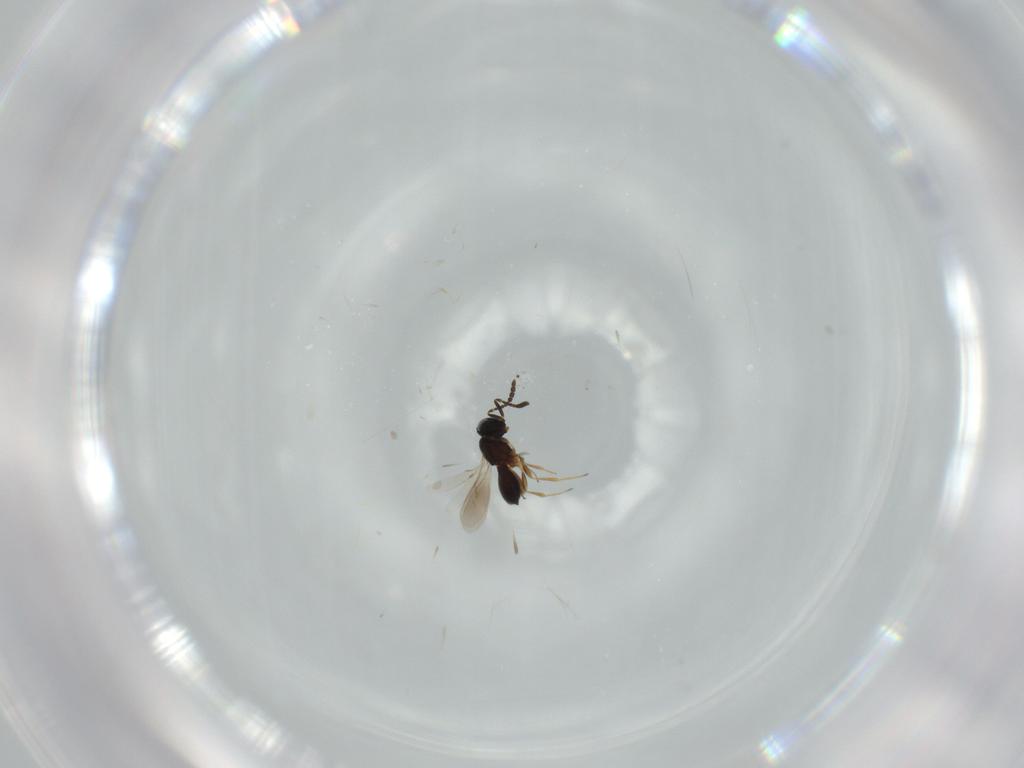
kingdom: Animalia
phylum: Arthropoda
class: Insecta
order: Hymenoptera
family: Scelionidae
